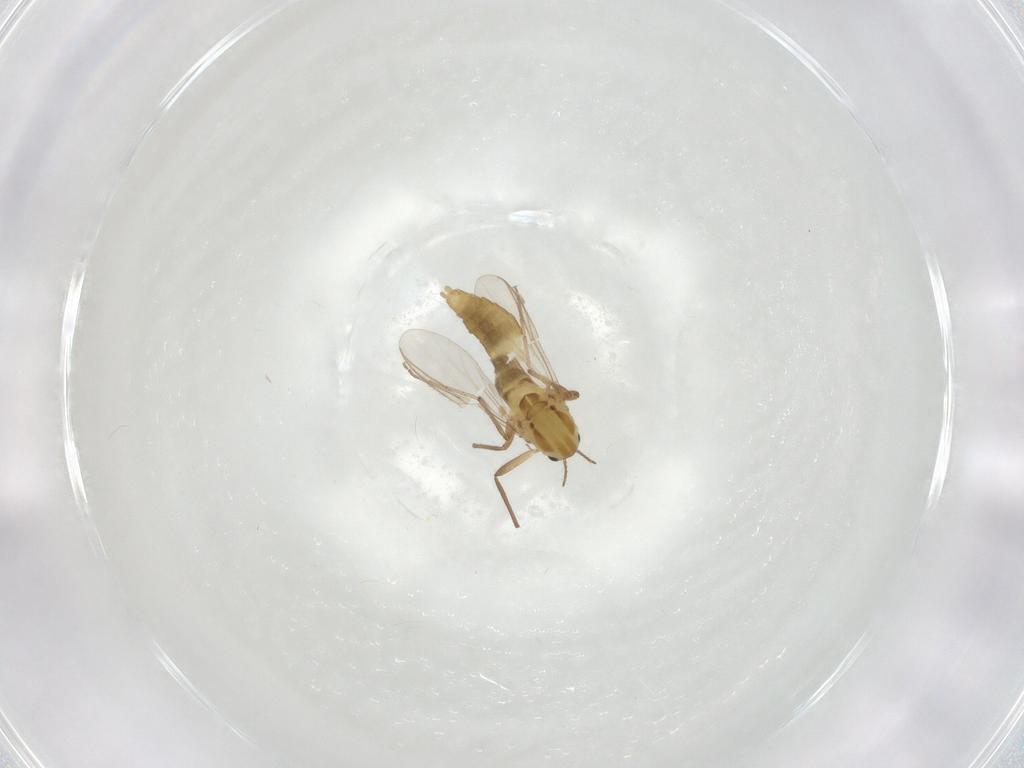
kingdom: Animalia
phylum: Arthropoda
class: Insecta
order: Diptera
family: Chironomidae
